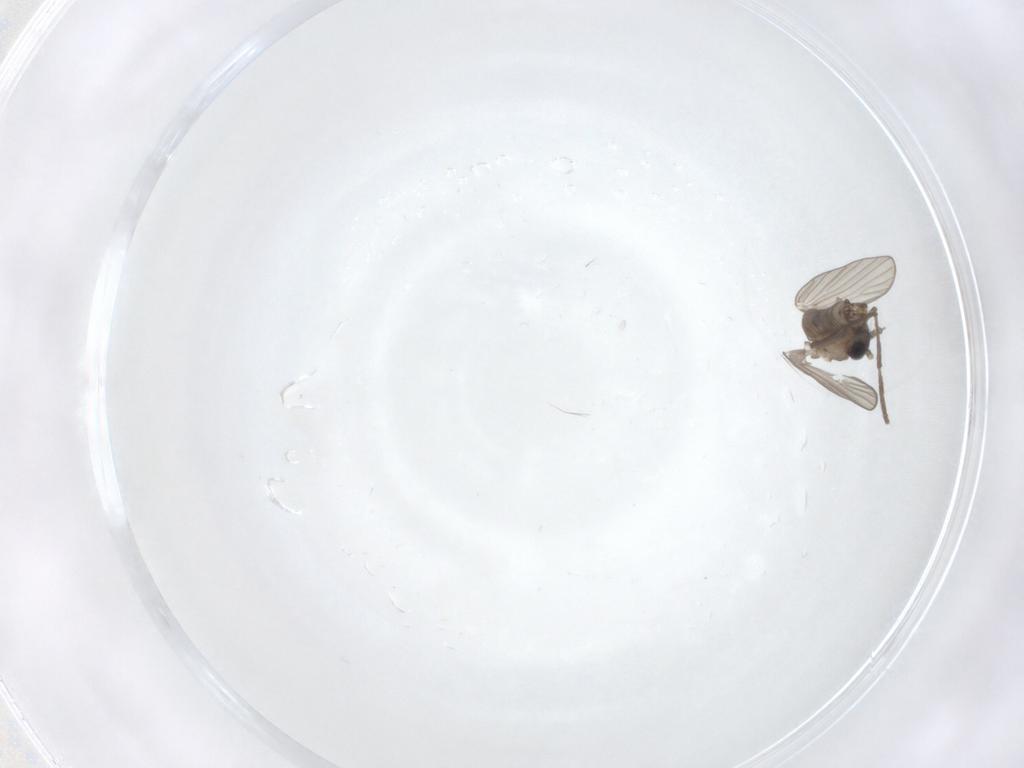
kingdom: Animalia
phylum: Arthropoda
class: Insecta
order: Diptera
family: Psychodidae
